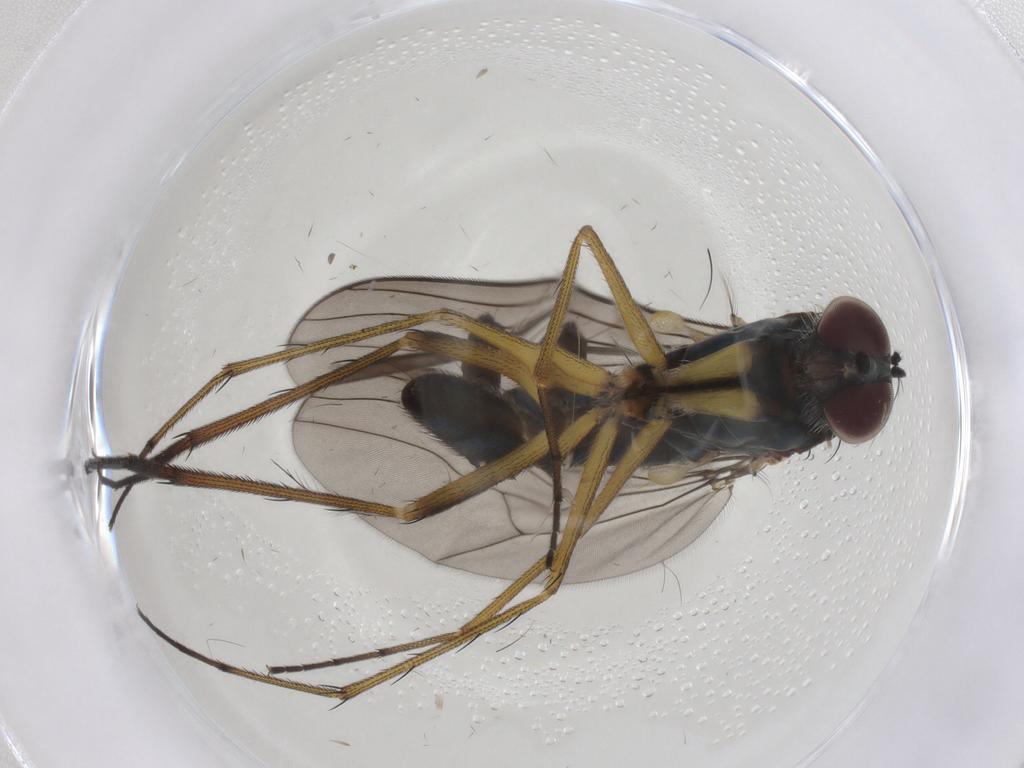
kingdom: Animalia
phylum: Arthropoda
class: Insecta
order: Diptera
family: Dolichopodidae
